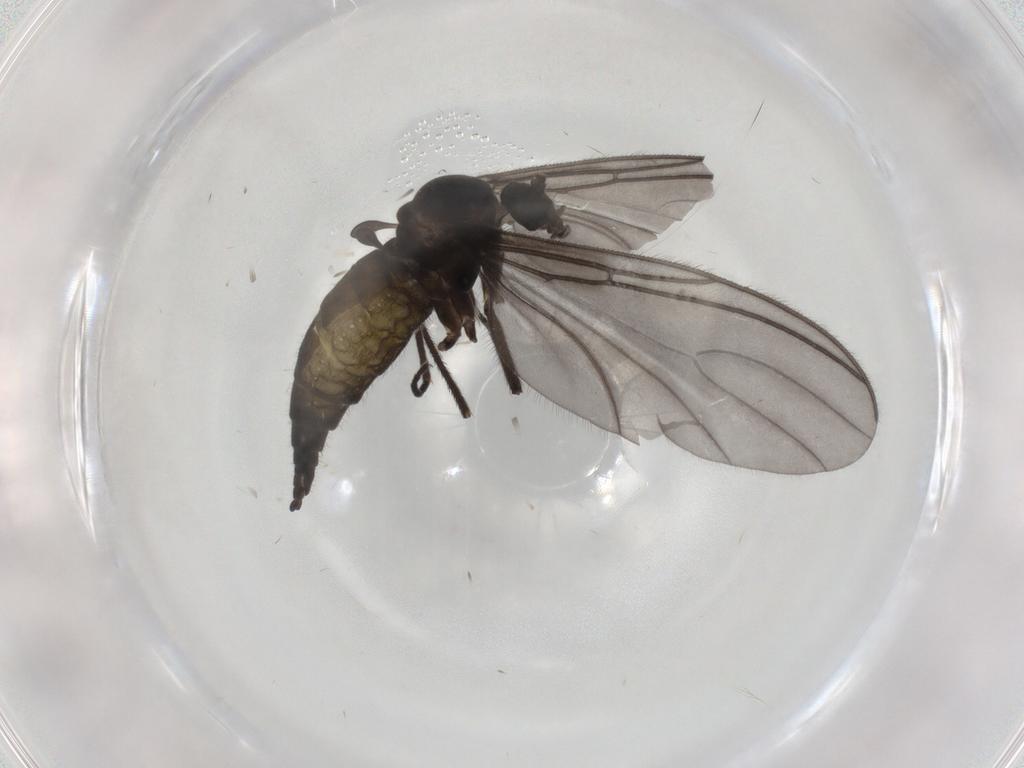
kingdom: Animalia
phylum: Arthropoda
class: Insecta
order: Diptera
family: Sciaridae
